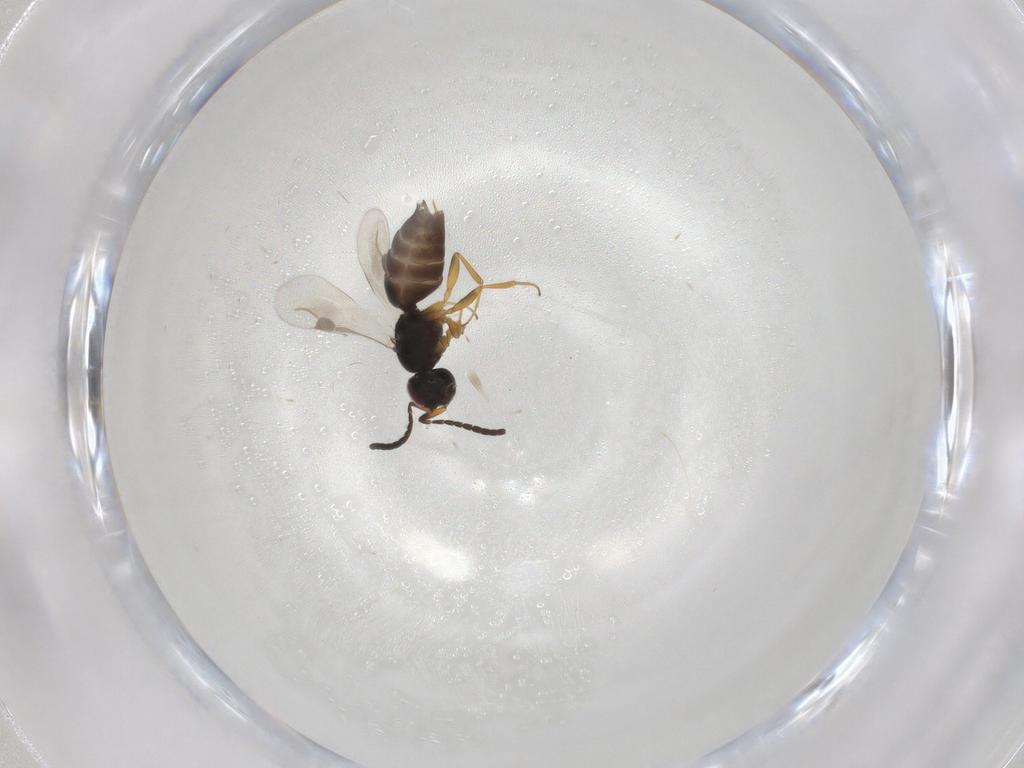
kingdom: Animalia
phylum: Arthropoda
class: Insecta
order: Hymenoptera
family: Megaspilidae
